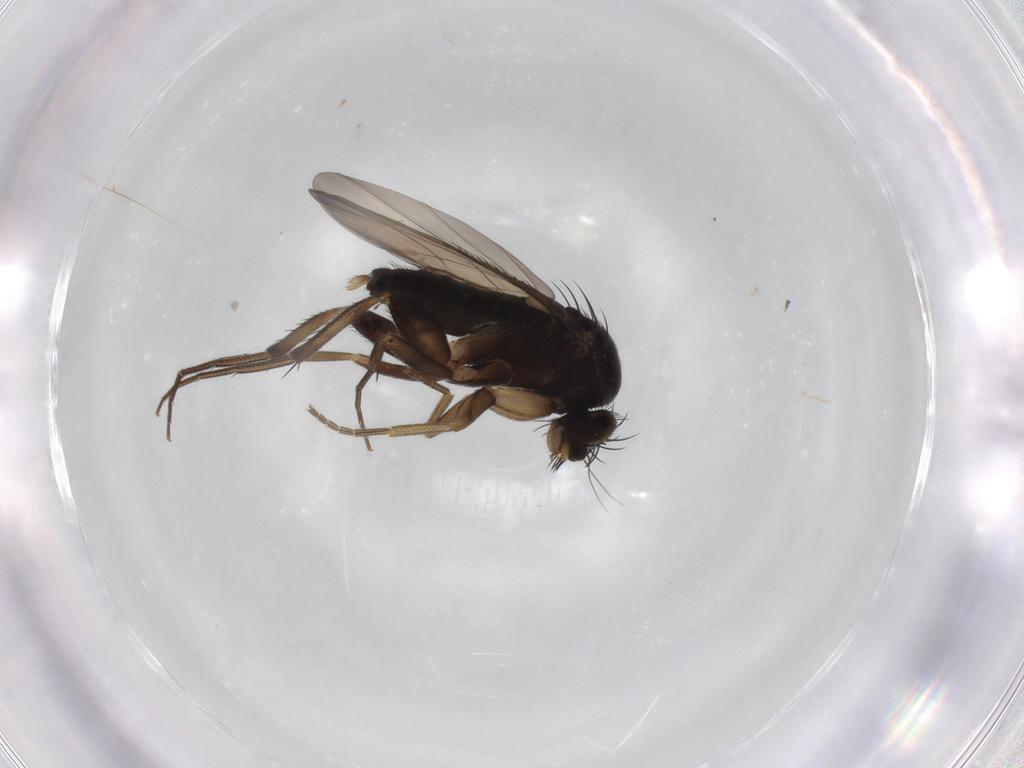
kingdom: Animalia
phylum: Arthropoda
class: Insecta
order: Diptera
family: Phoridae
